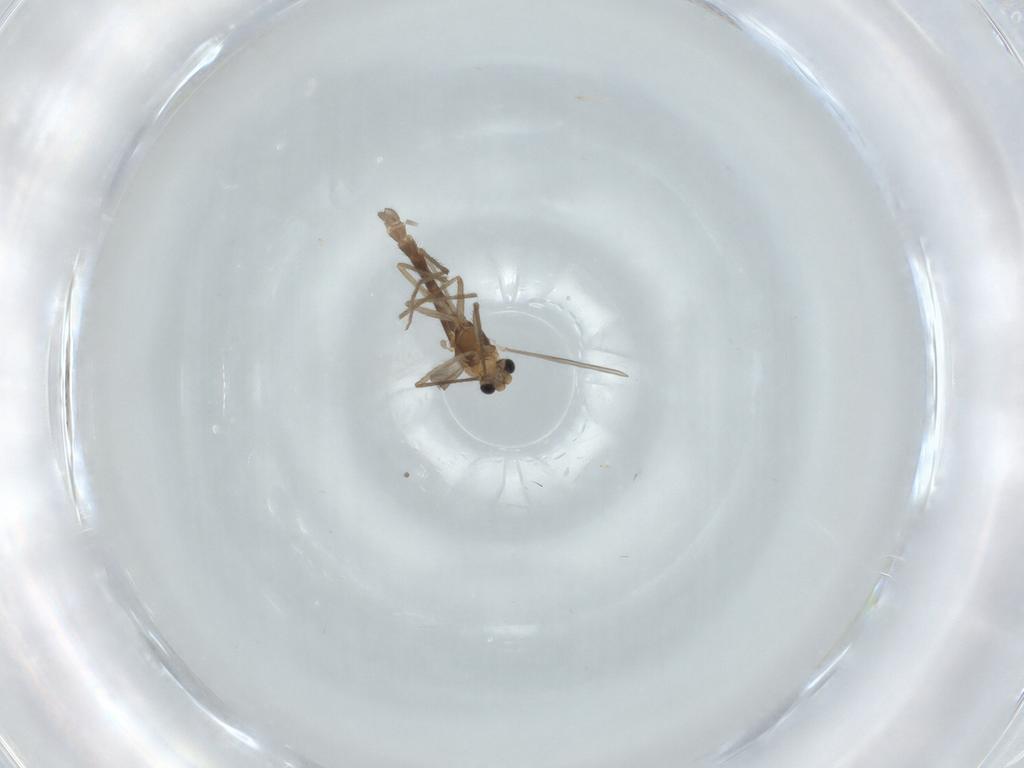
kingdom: Animalia
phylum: Arthropoda
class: Insecta
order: Diptera
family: Chironomidae
